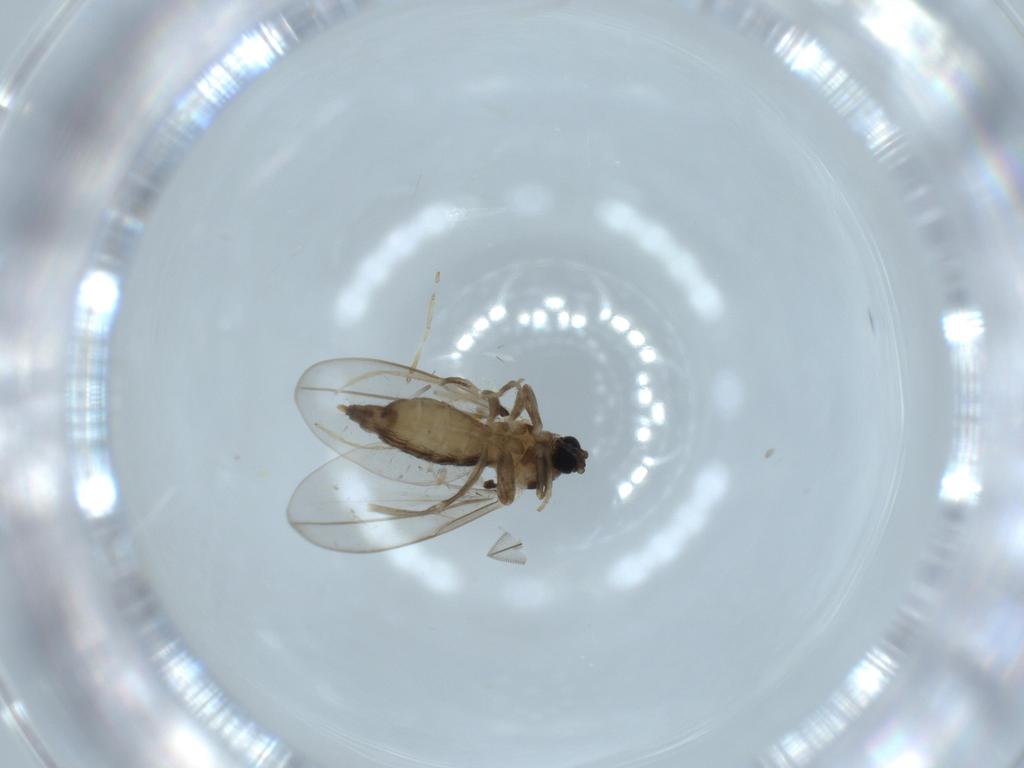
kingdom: Animalia
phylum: Arthropoda
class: Insecta
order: Diptera
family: Cecidomyiidae
